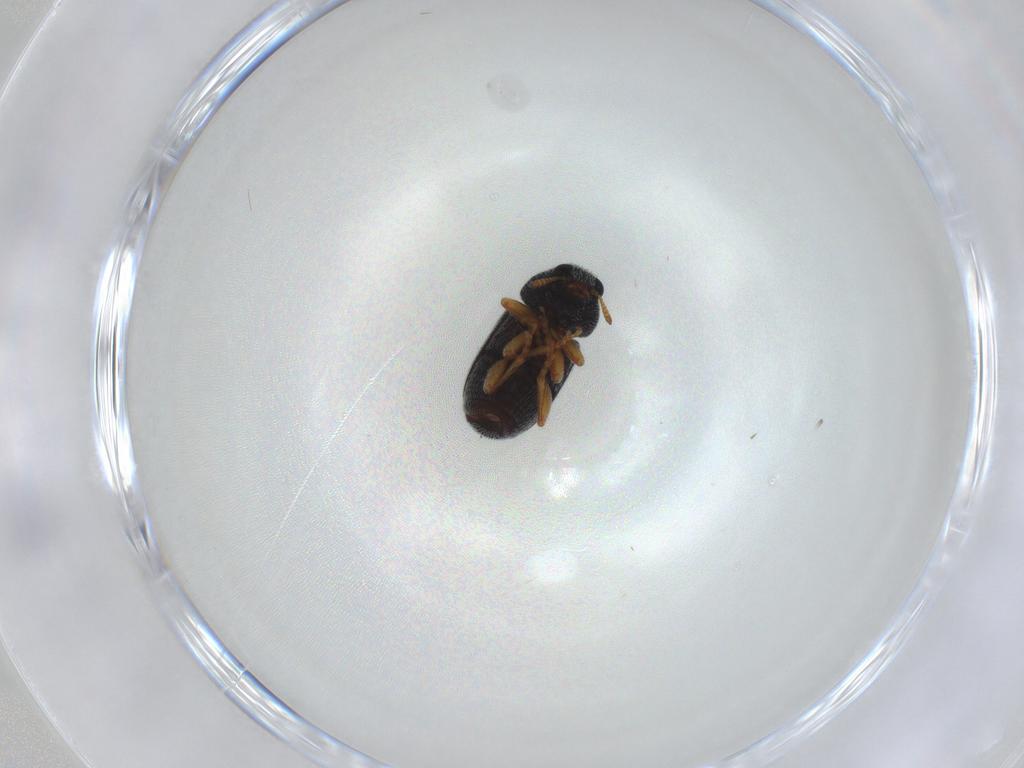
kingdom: Animalia
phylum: Arthropoda
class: Insecta
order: Coleoptera
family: Anthribidae
